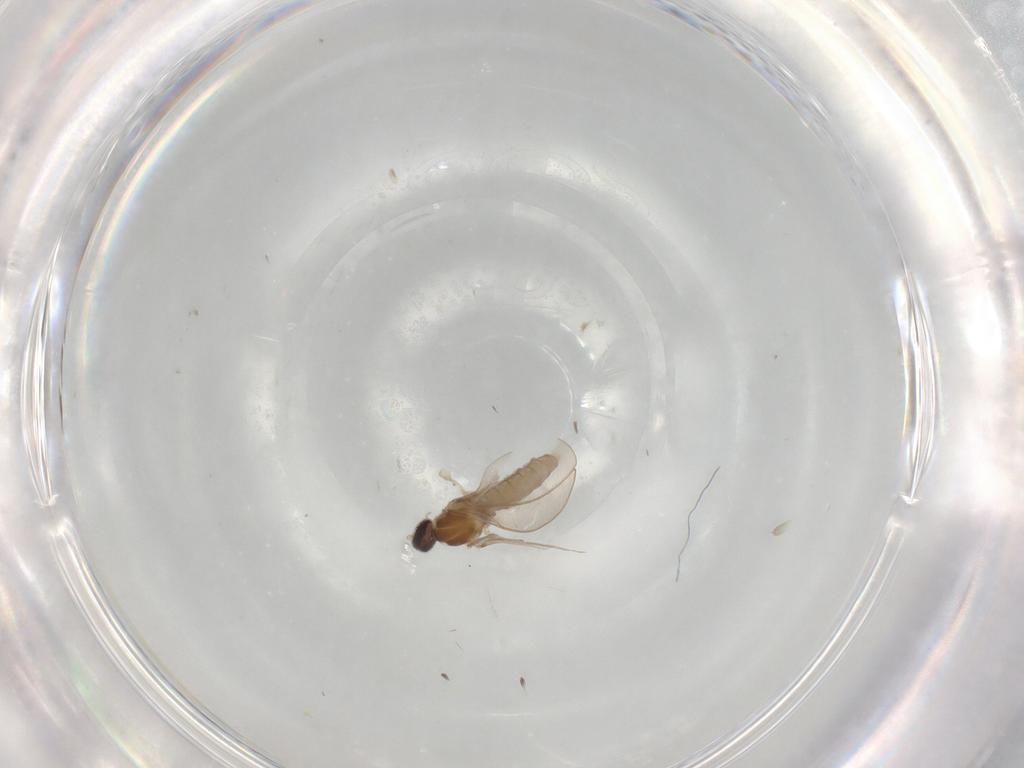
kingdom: Animalia
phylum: Arthropoda
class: Insecta
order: Diptera
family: Cecidomyiidae
